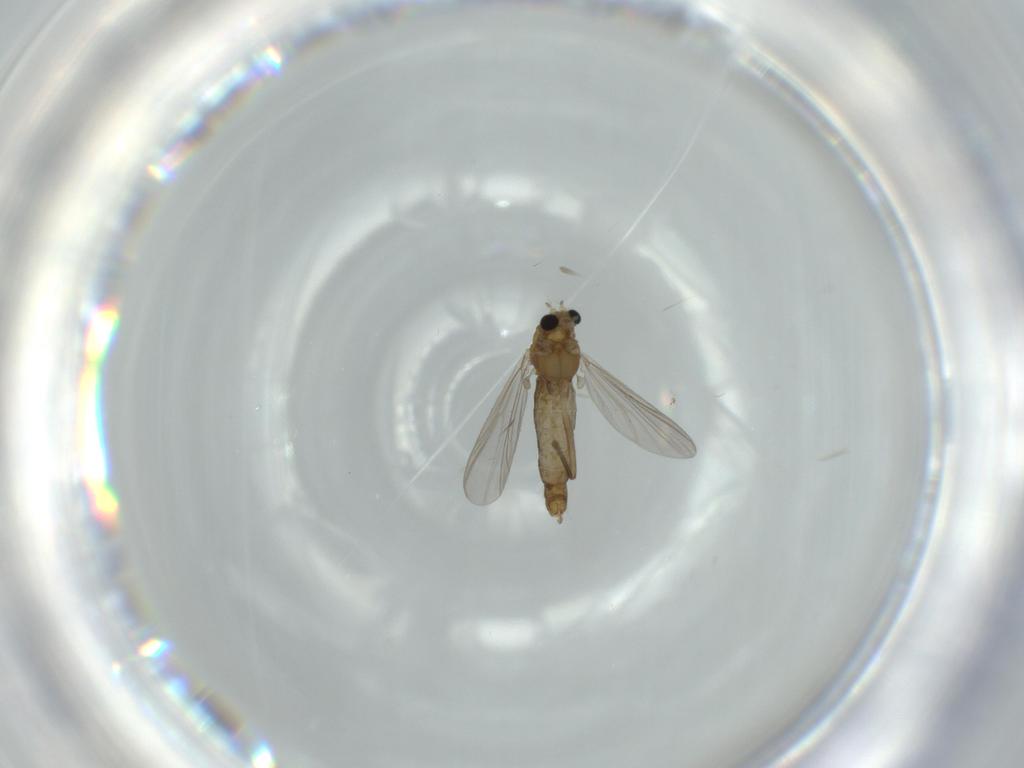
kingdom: Animalia
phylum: Arthropoda
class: Insecta
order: Diptera
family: Chironomidae
